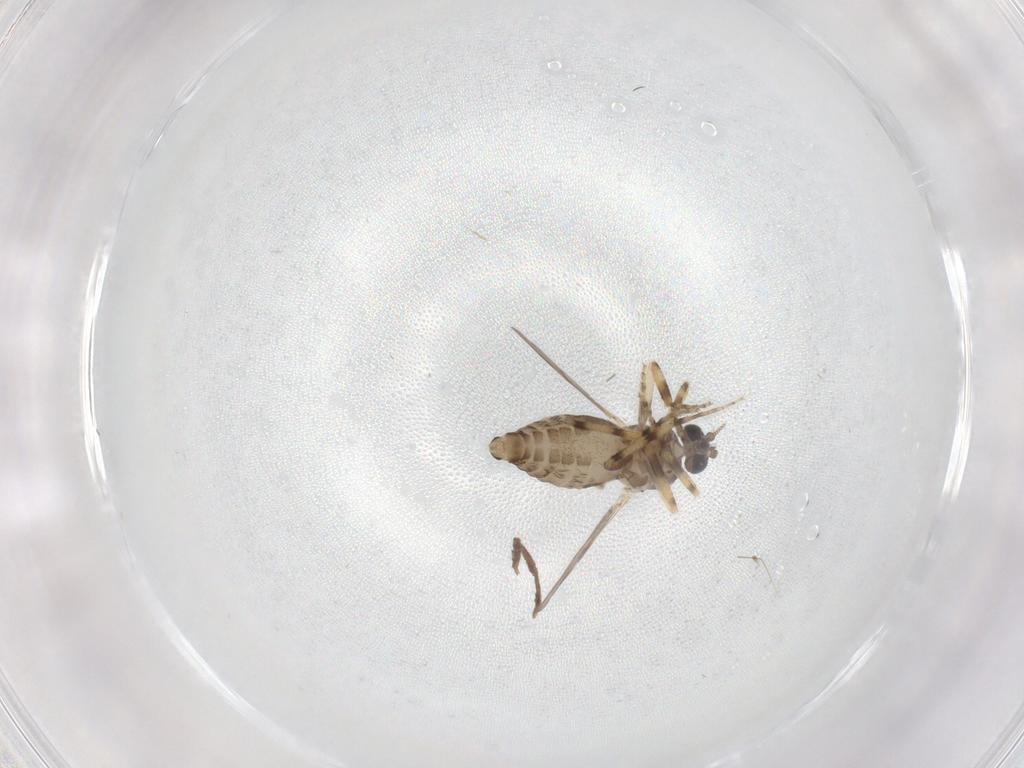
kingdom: Animalia
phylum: Arthropoda
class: Insecta
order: Diptera
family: Ceratopogonidae
